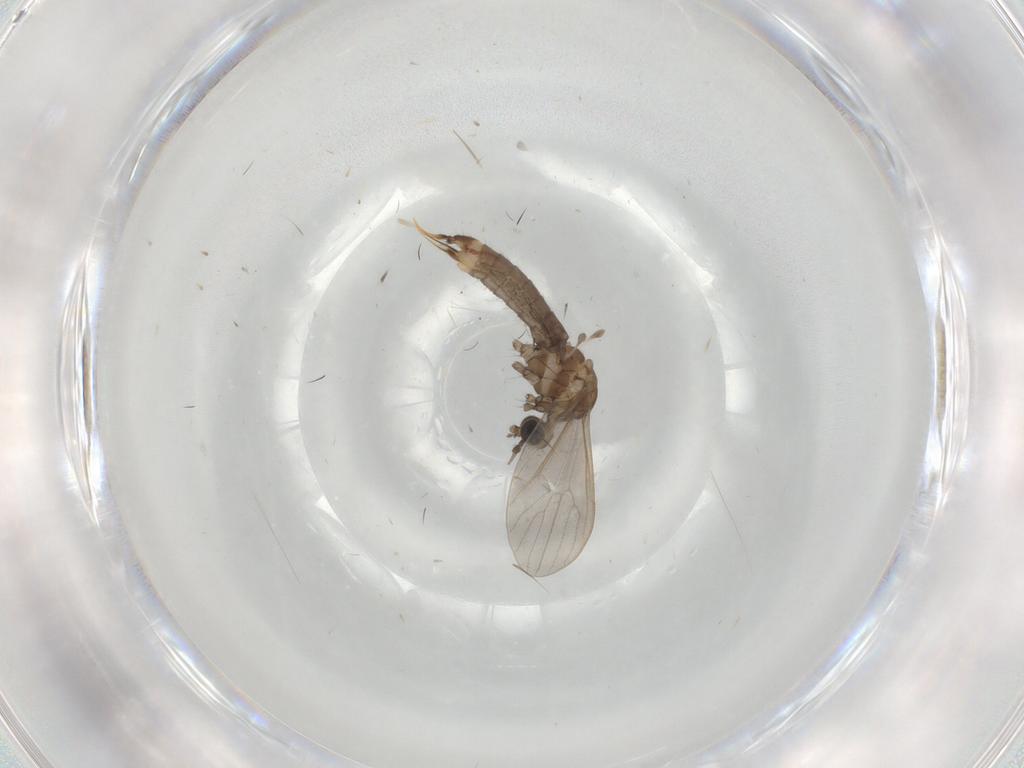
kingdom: Animalia
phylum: Arthropoda
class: Insecta
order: Diptera
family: Limoniidae
